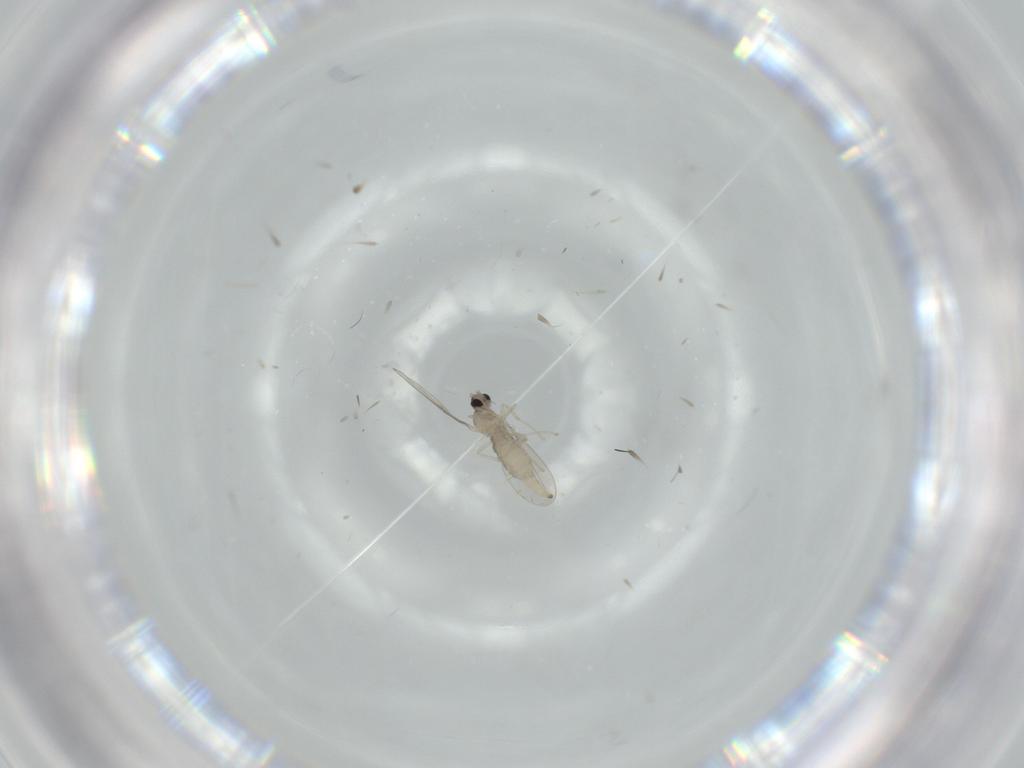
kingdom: Animalia
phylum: Arthropoda
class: Insecta
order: Diptera
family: Cecidomyiidae
